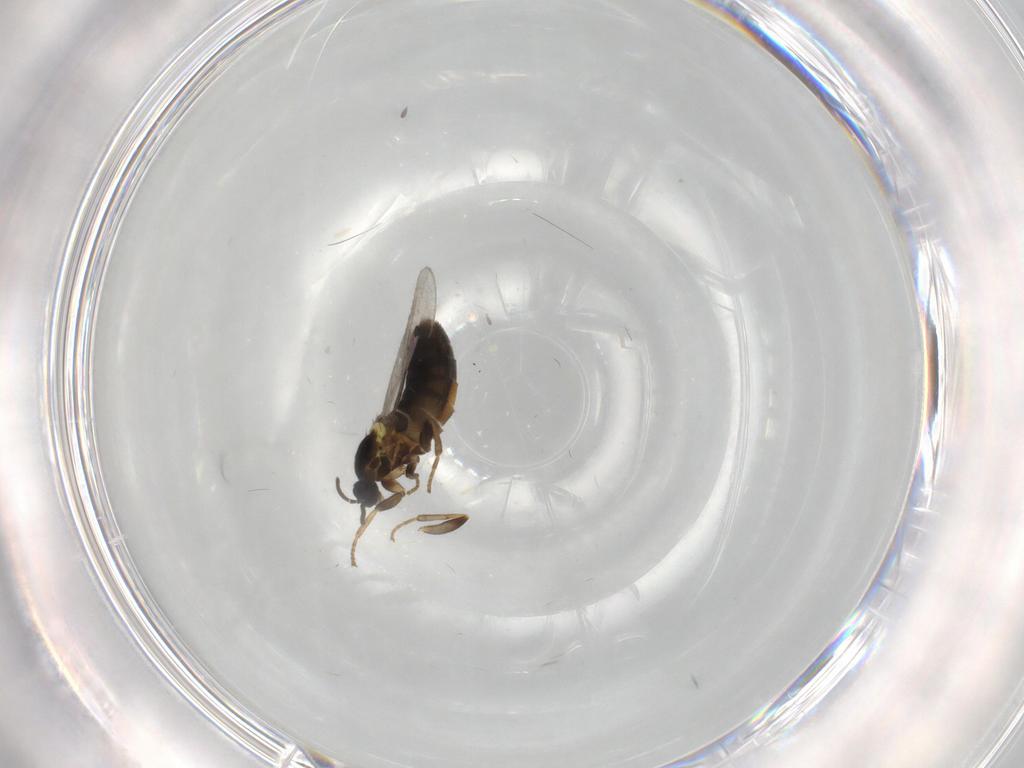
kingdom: Animalia
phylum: Arthropoda
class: Insecta
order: Diptera
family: Scatopsidae
